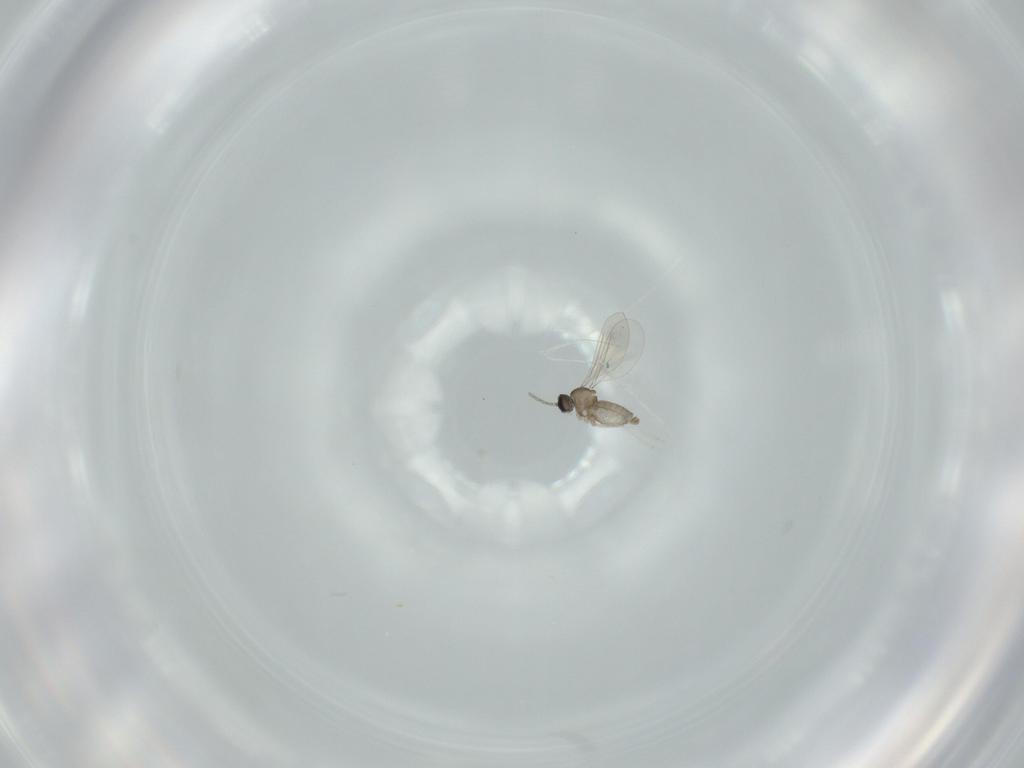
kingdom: Animalia
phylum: Arthropoda
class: Insecta
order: Diptera
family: Cecidomyiidae
